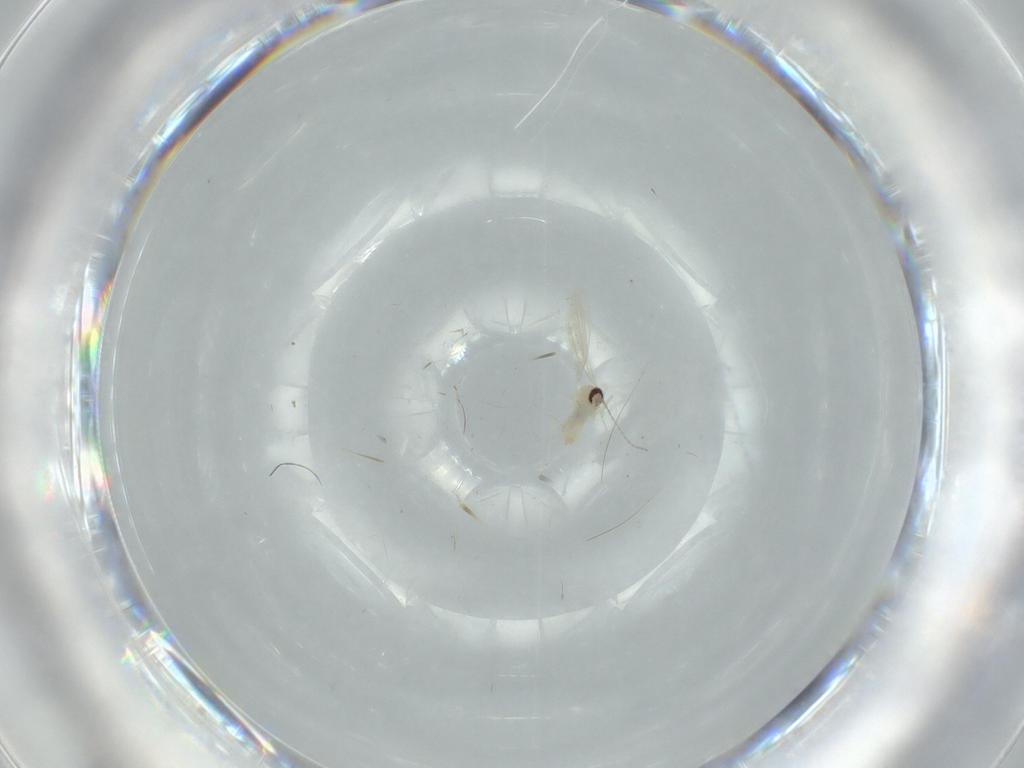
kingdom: Animalia
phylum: Arthropoda
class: Insecta
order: Diptera
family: Cecidomyiidae
